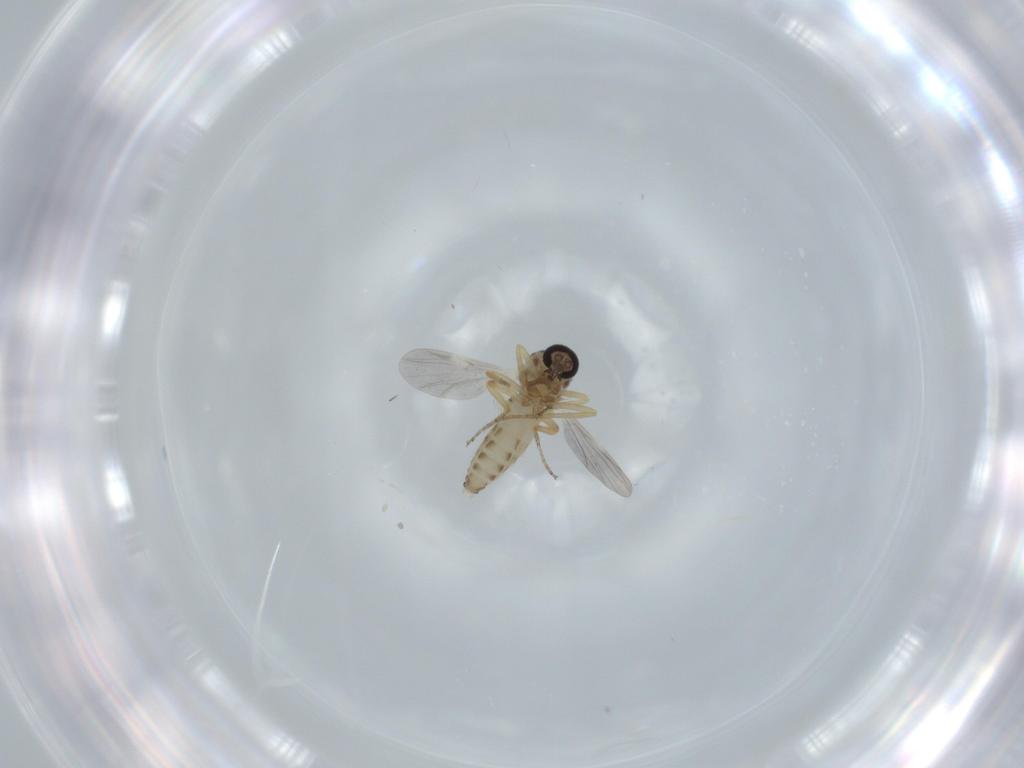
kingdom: Animalia
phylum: Arthropoda
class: Insecta
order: Diptera
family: Ceratopogonidae
